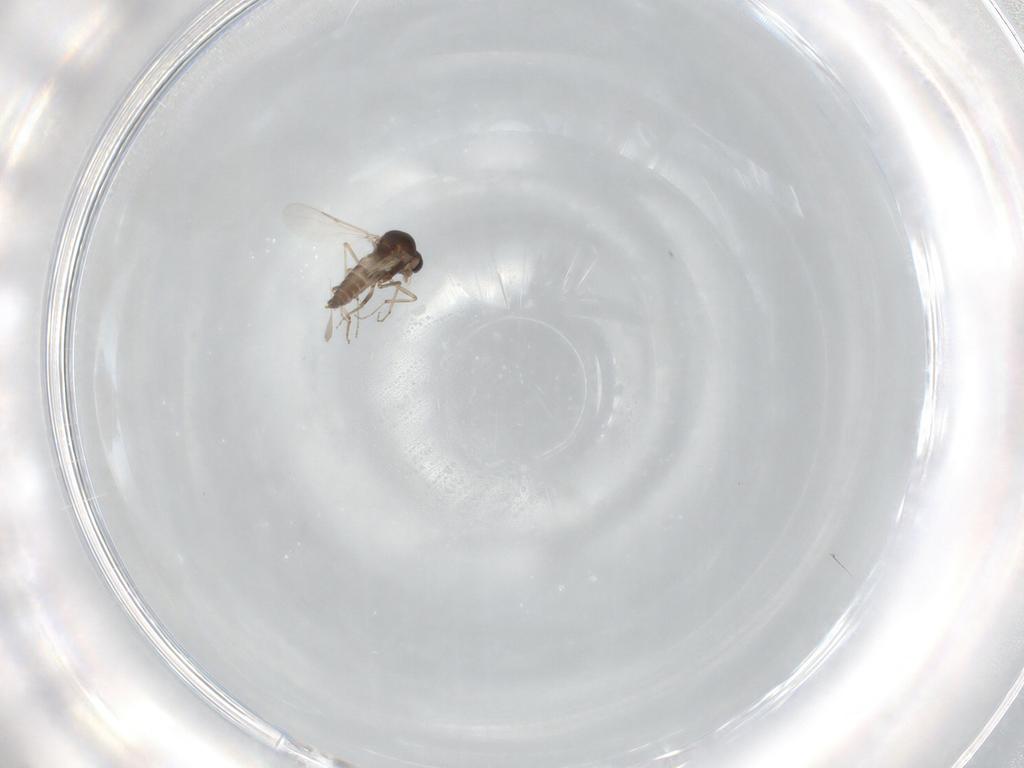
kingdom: Animalia
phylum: Arthropoda
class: Insecta
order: Diptera
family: Ceratopogonidae
